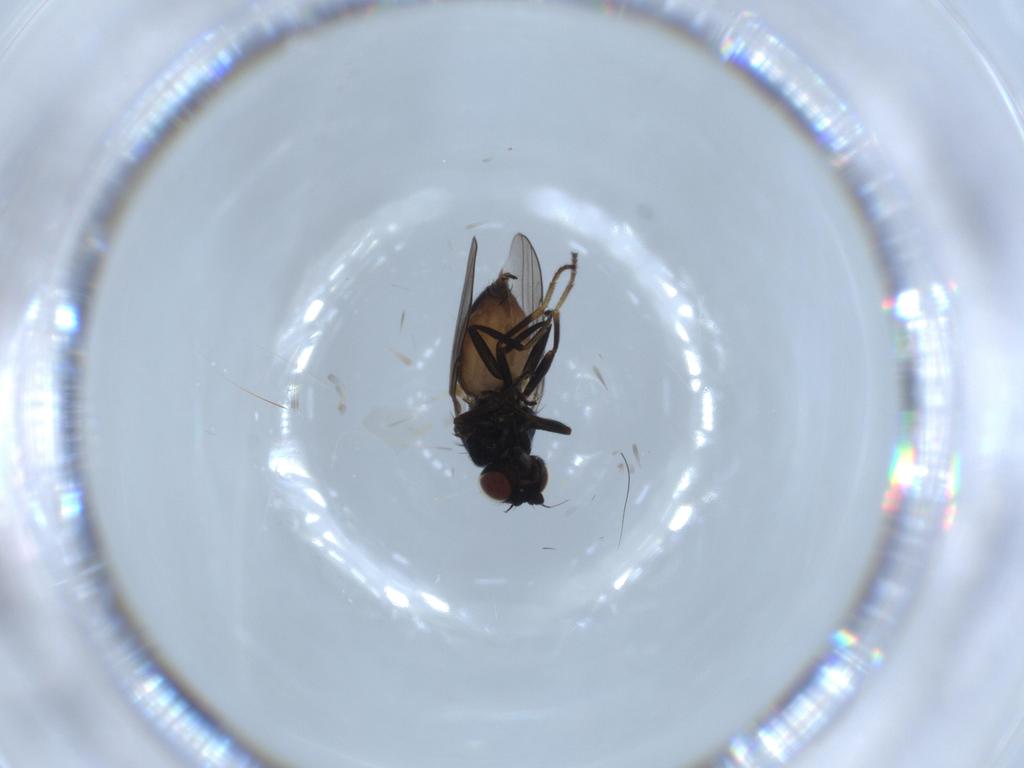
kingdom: Animalia
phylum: Arthropoda
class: Insecta
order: Diptera
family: Chloropidae
